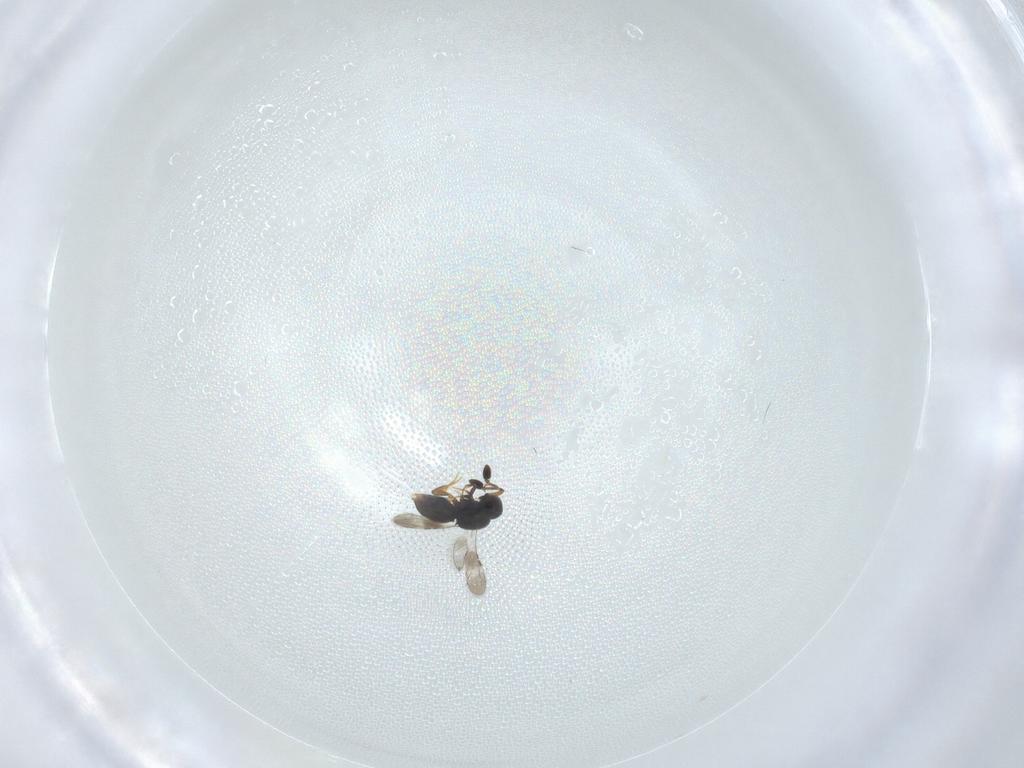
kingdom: Animalia
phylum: Arthropoda
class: Insecta
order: Hymenoptera
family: Mymaridae
